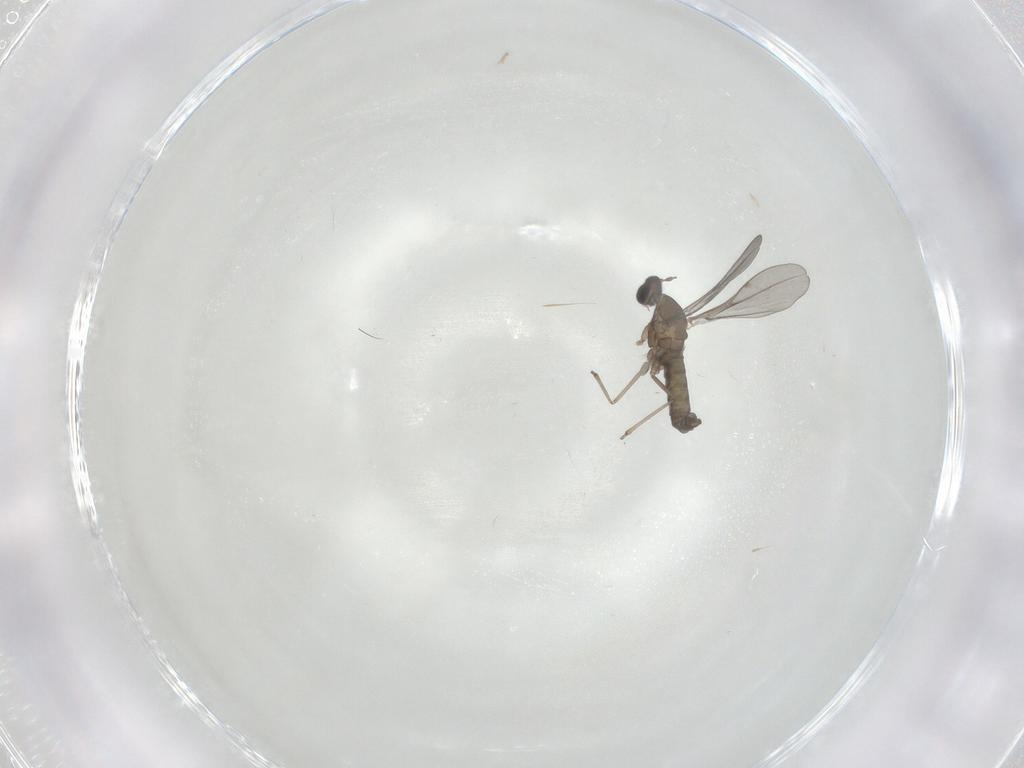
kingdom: Animalia
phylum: Arthropoda
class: Insecta
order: Diptera
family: Cecidomyiidae
